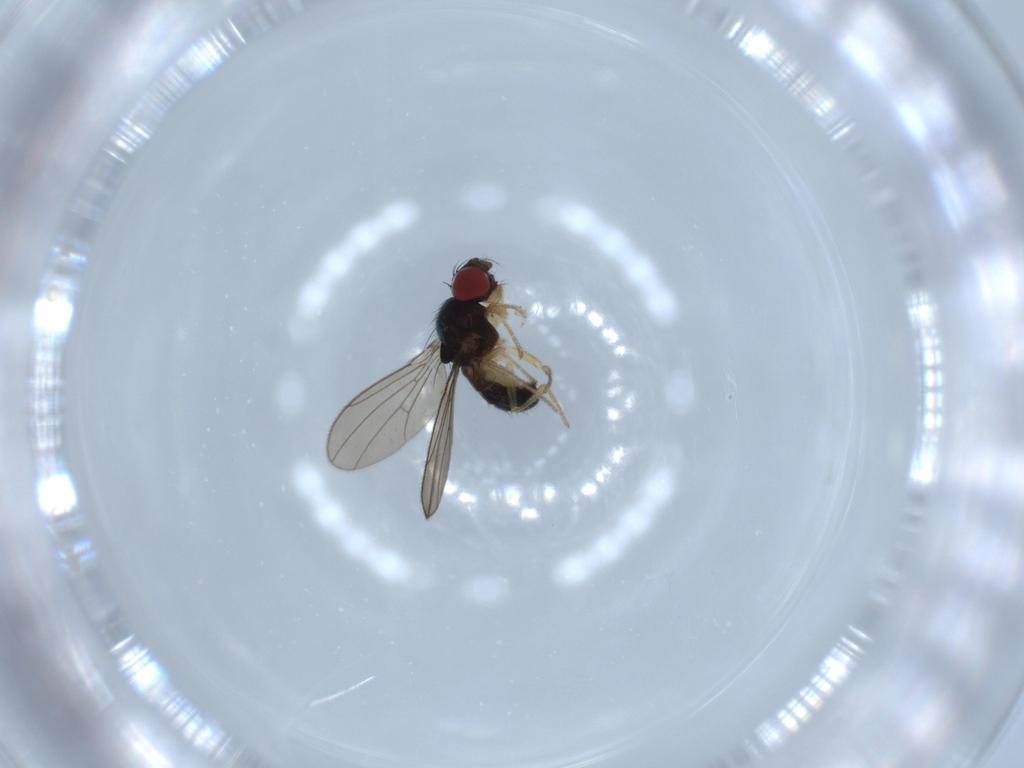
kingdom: Animalia
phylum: Arthropoda
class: Insecta
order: Diptera
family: Drosophilidae
